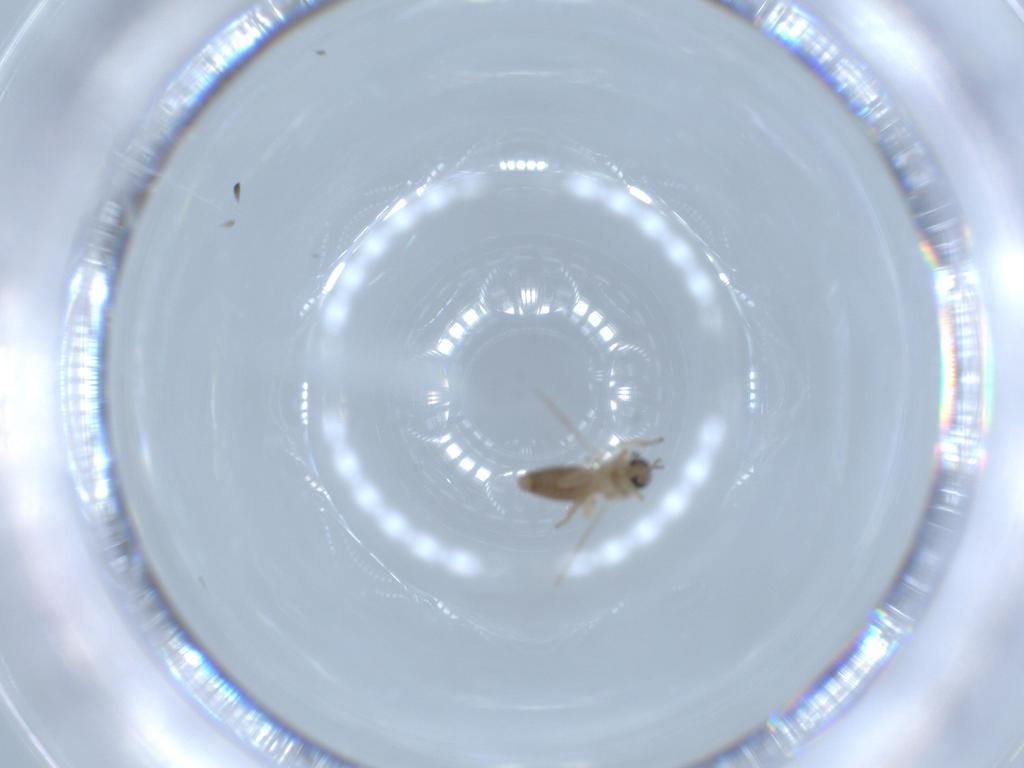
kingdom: Animalia
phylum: Arthropoda
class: Insecta
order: Diptera
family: Ceratopogonidae
